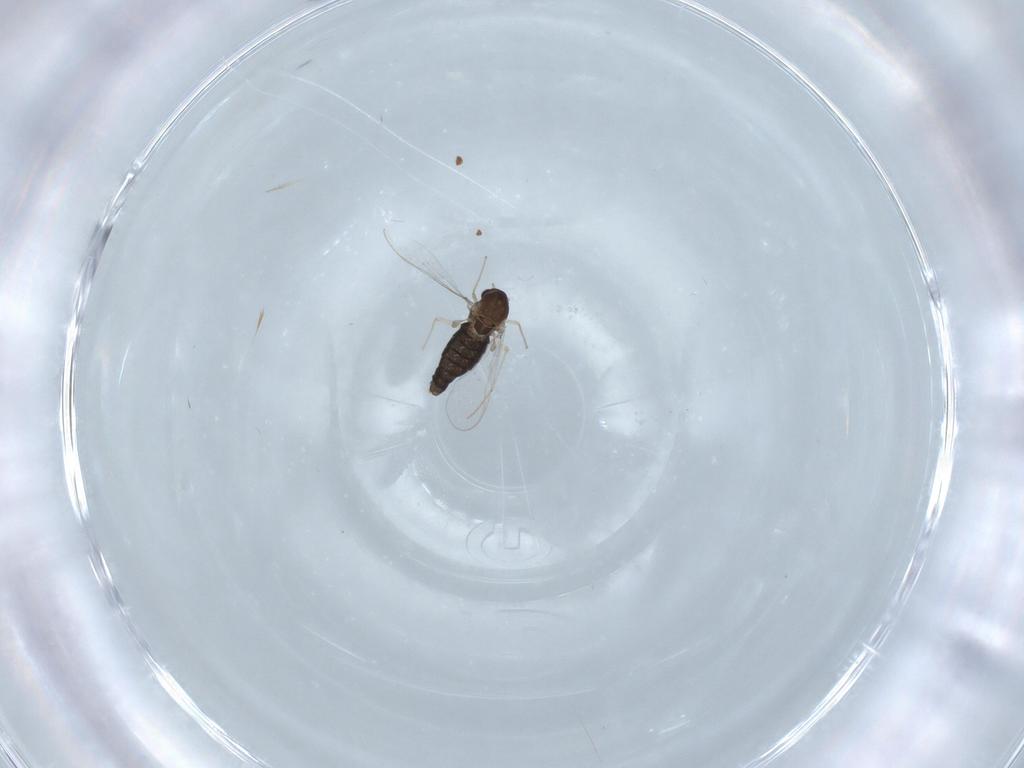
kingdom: Animalia
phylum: Arthropoda
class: Insecta
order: Diptera
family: Chironomidae
